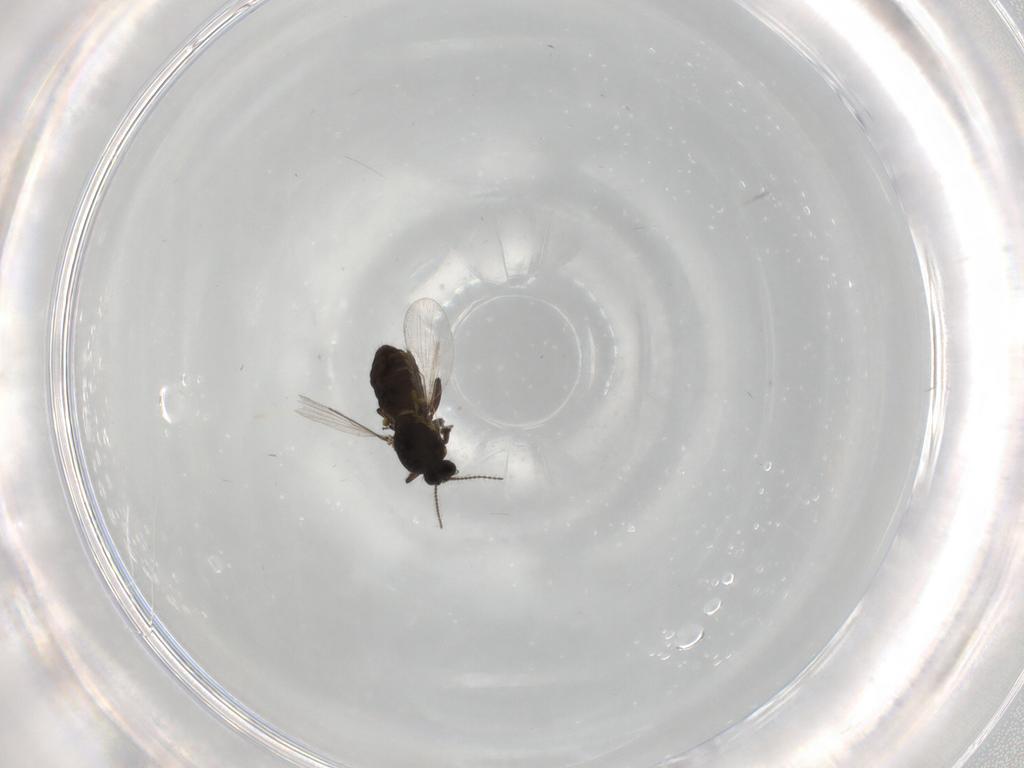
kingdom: Animalia
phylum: Arthropoda
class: Insecta
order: Diptera
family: Ceratopogonidae
